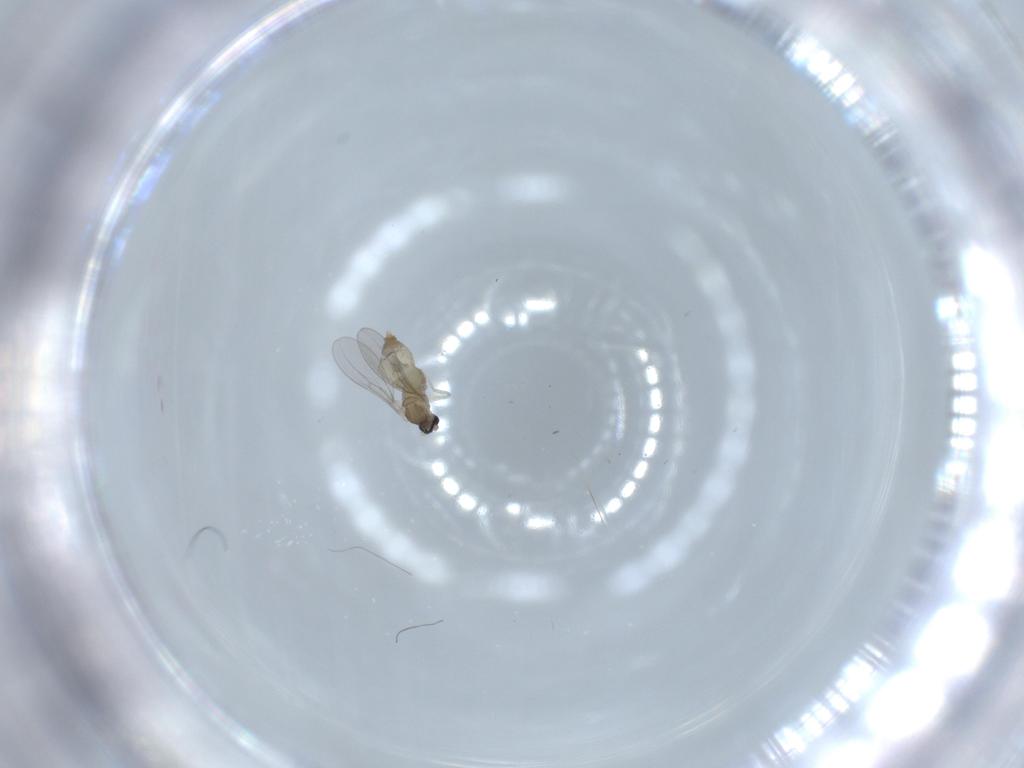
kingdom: Animalia
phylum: Arthropoda
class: Insecta
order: Diptera
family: Cecidomyiidae
